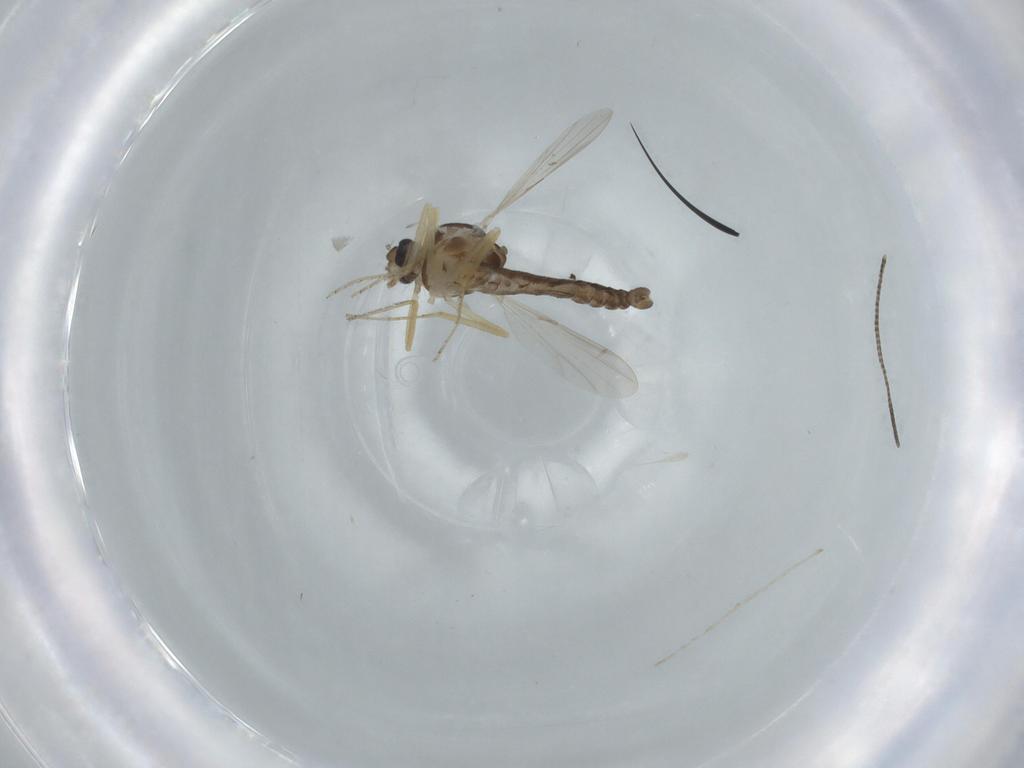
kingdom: Animalia
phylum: Arthropoda
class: Insecta
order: Diptera
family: Ceratopogonidae
